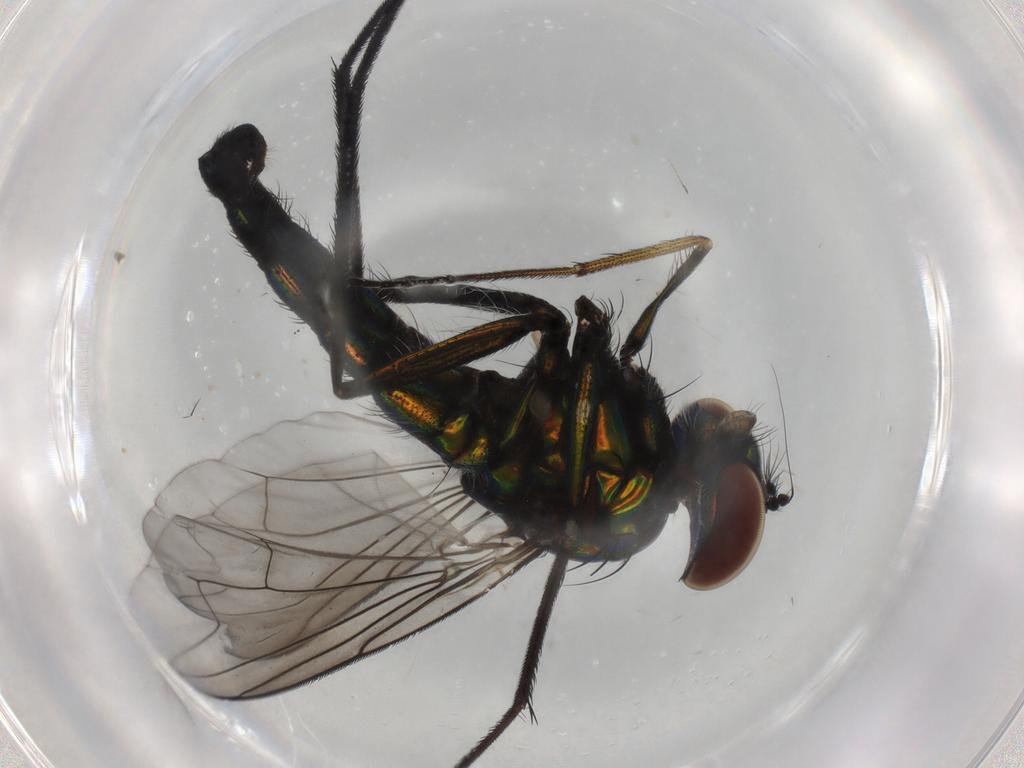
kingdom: Animalia
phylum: Arthropoda
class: Insecta
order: Diptera
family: Dolichopodidae
